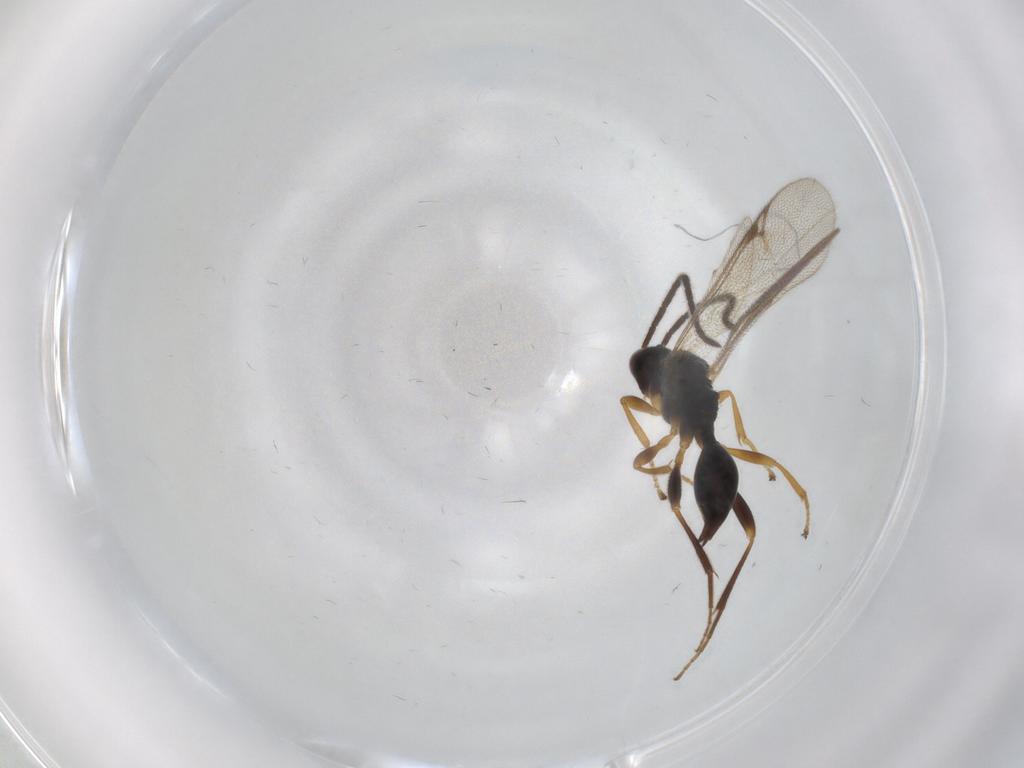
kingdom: Animalia
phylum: Arthropoda
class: Insecta
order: Hymenoptera
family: Proctotrupidae
